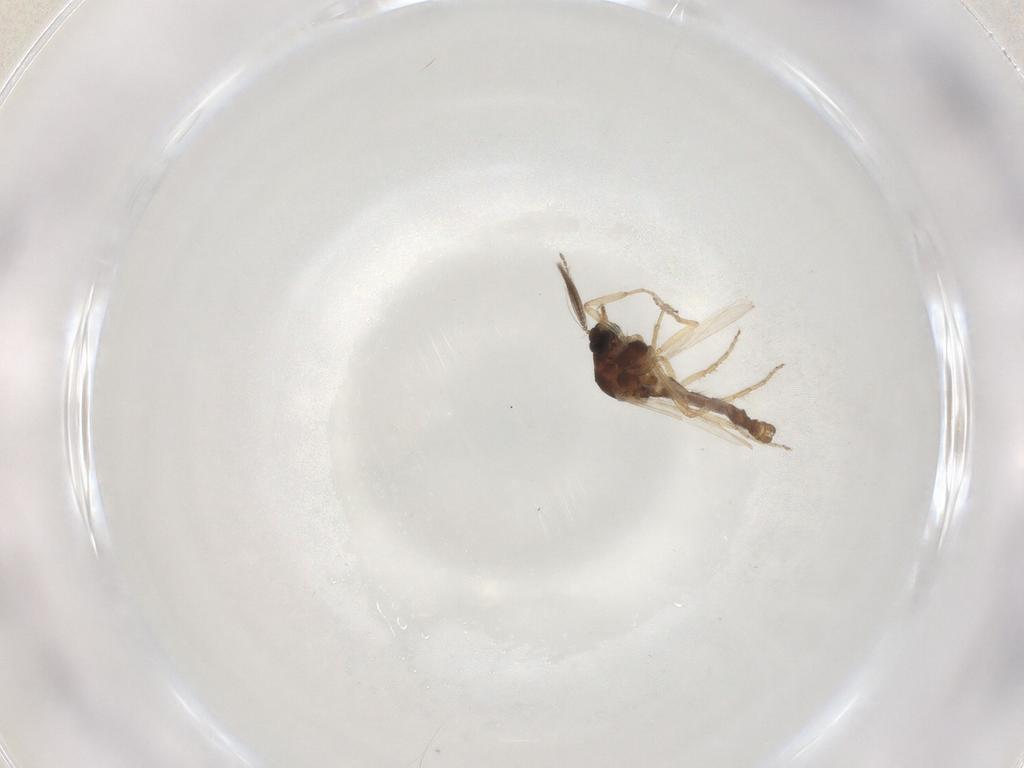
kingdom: Animalia
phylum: Arthropoda
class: Insecta
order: Diptera
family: Ceratopogonidae
